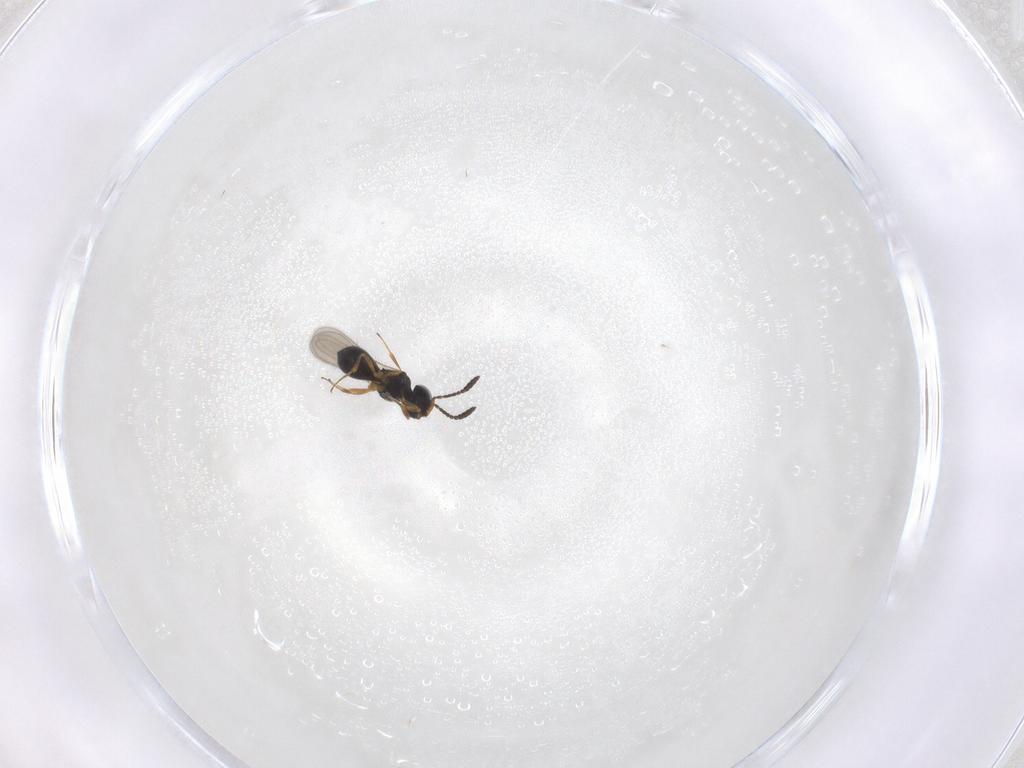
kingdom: Animalia
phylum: Arthropoda
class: Insecta
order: Hymenoptera
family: Scelionidae
